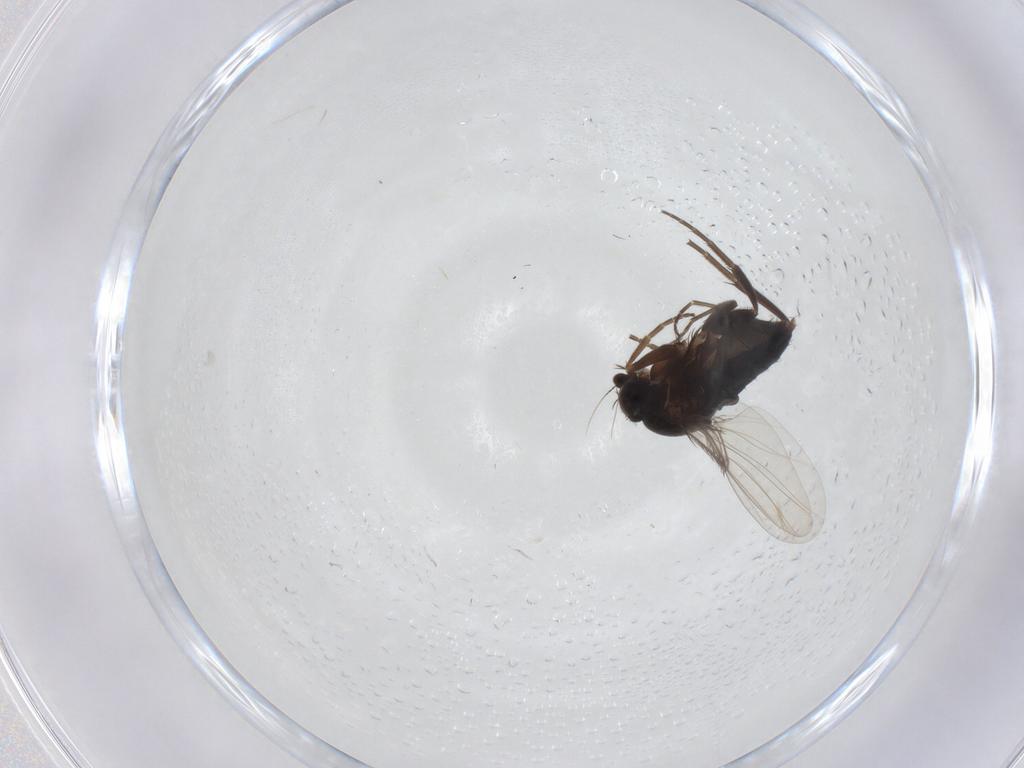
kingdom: Animalia
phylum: Arthropoda
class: Insecta
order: Diptera
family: Phoridae
